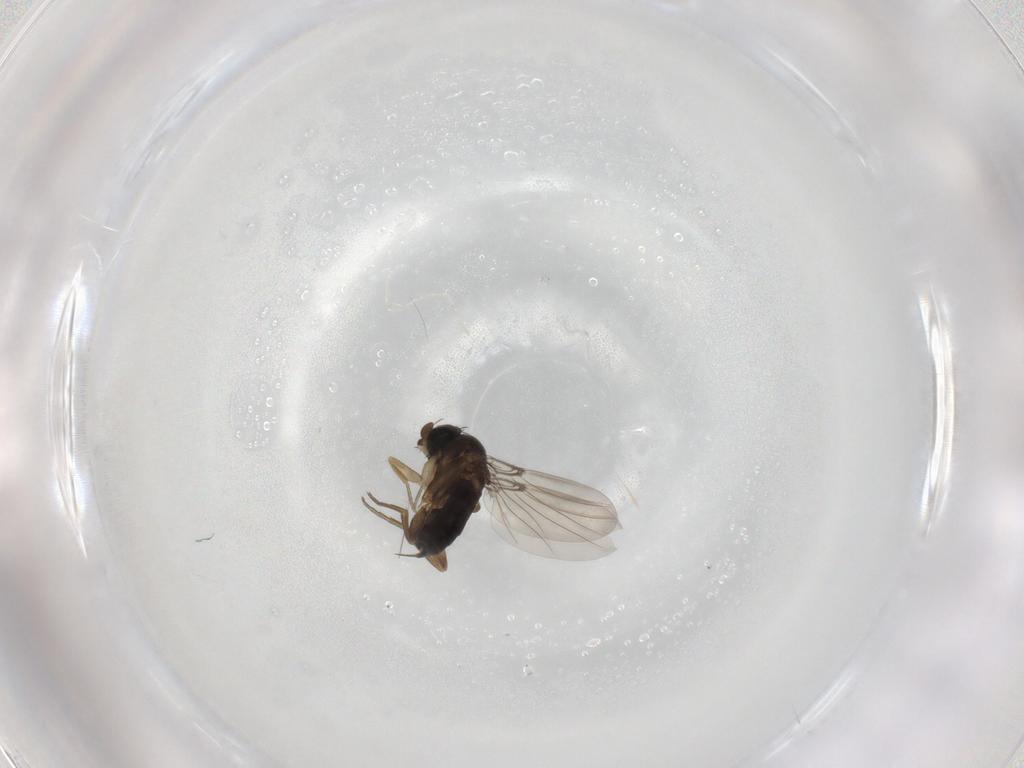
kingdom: Animalia
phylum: Arthropoda
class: Insecta
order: Diptera
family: Phoridae
